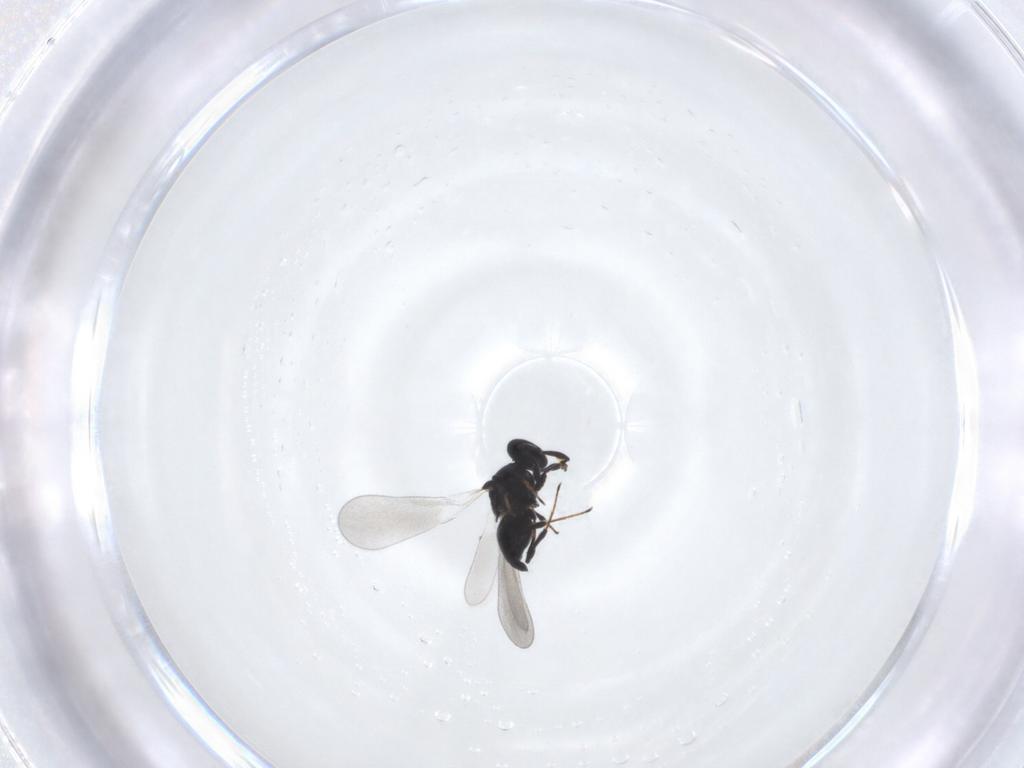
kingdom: Animalia
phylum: Arthropoda
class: Insecta
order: Hymenoptera
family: Platygastridae
